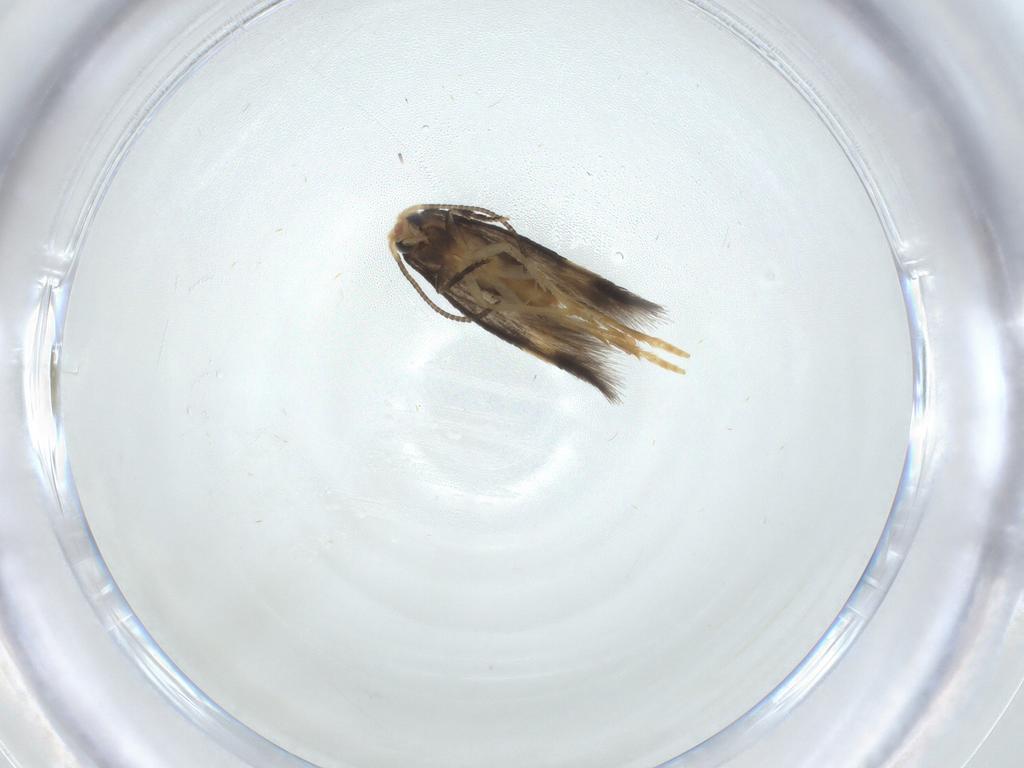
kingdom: Animalia
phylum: Arthropoda
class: Insecta
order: Lepidoptera
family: Nepticulidae
